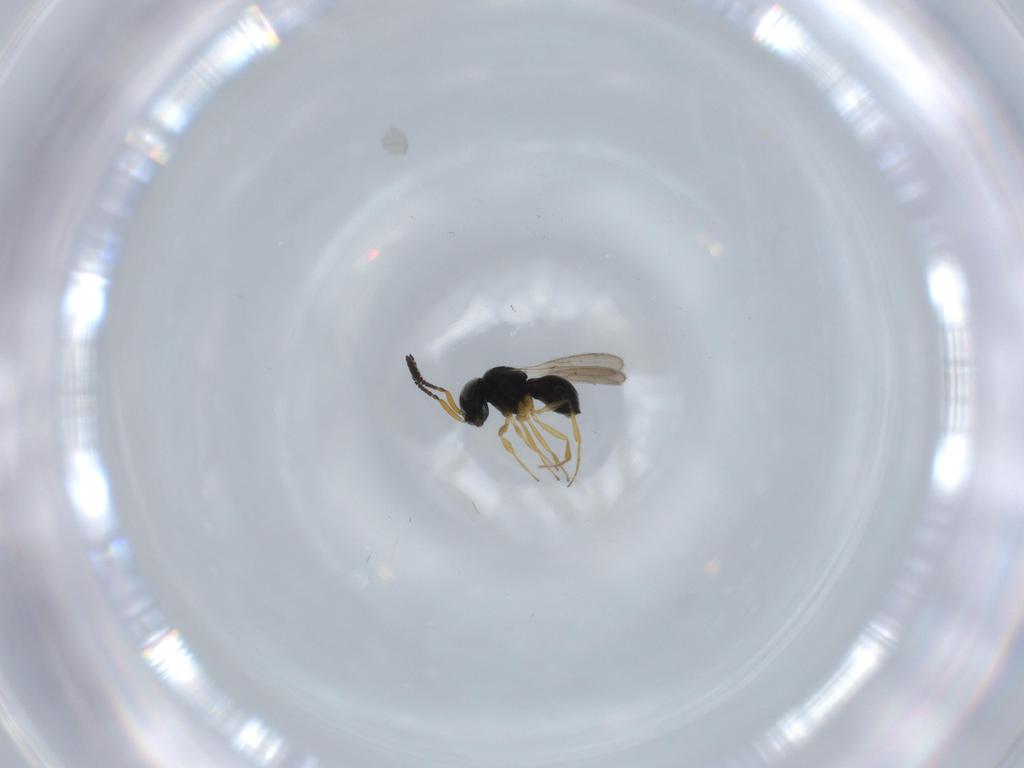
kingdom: Animalia
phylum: Arthropoda
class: Insecta
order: Hymenoptera
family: Scelionidae
